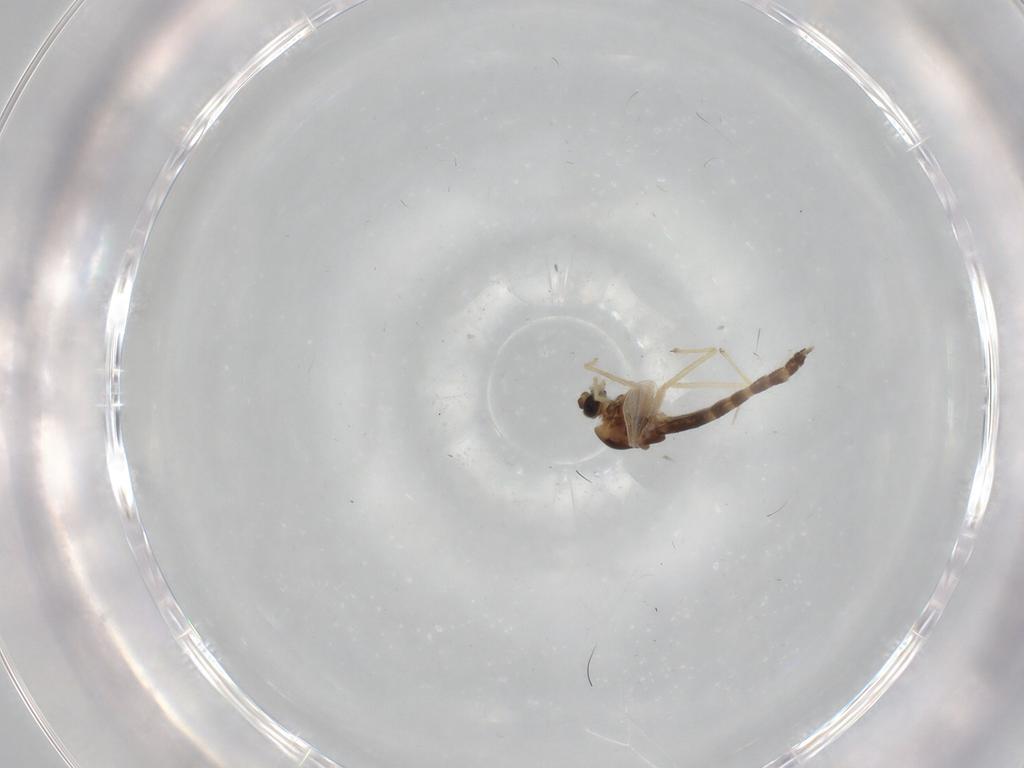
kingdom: Animalia
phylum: Arthropoda
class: Insecta
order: Diptera
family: Chironomidae
